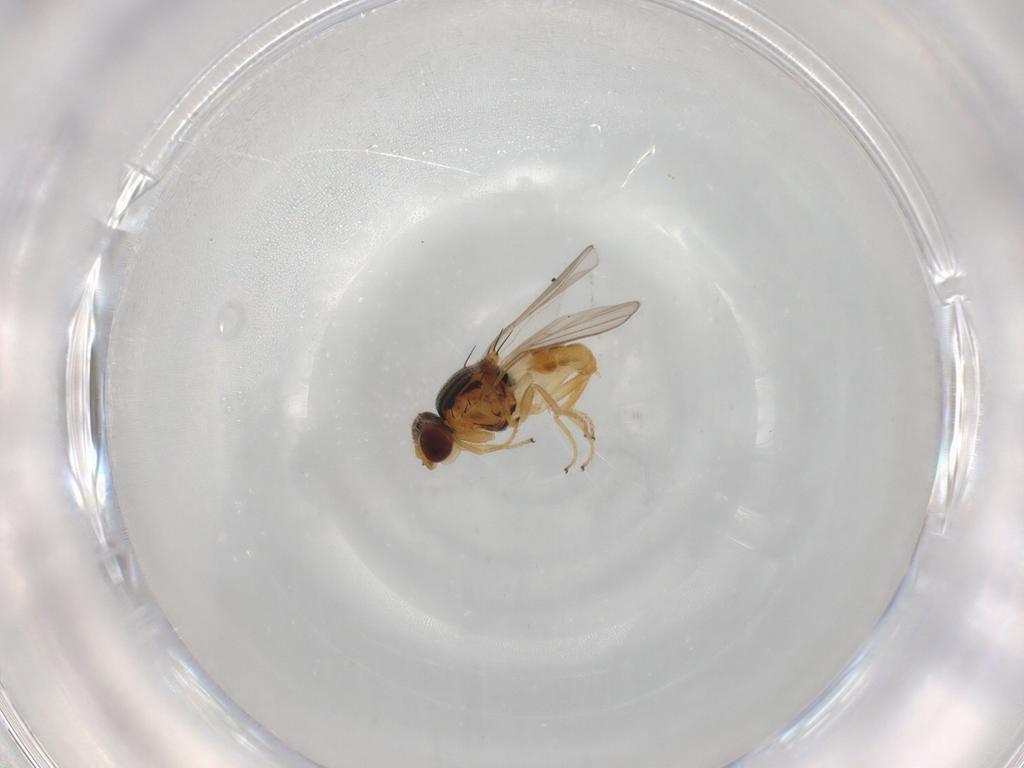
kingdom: Animalia
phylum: Arthropoda
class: Insecta
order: Diptera
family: Chloropidae
